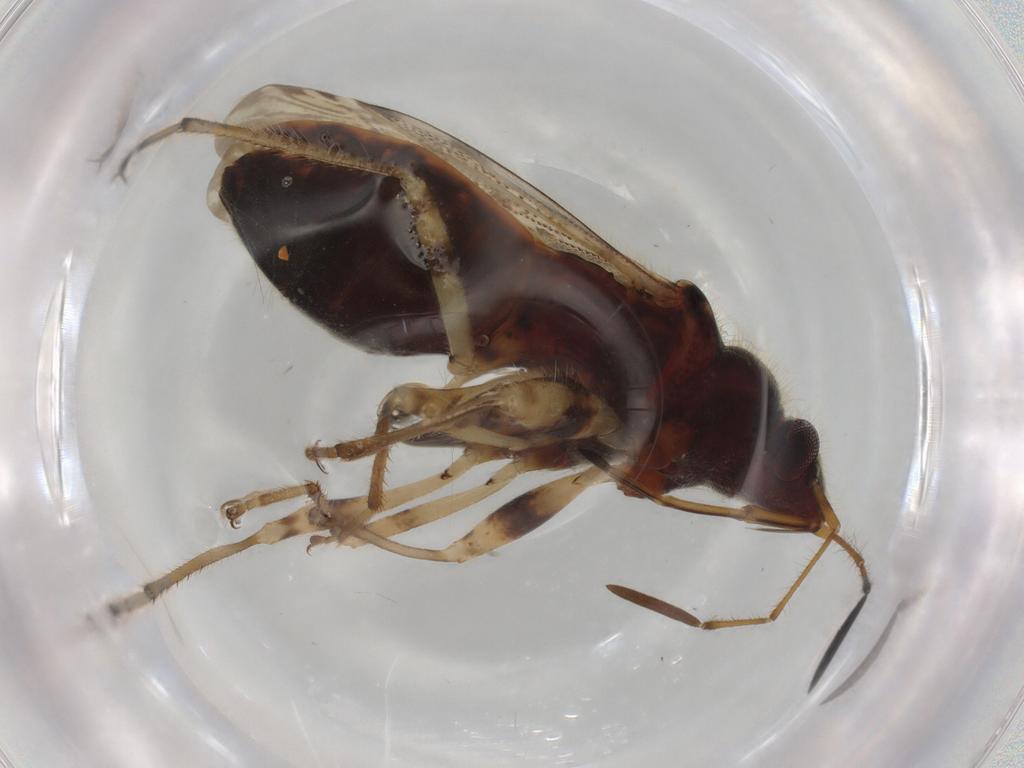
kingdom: Animalia
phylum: Arthropoda
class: Insecta
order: Hemiptera
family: Rhyparochromidae
